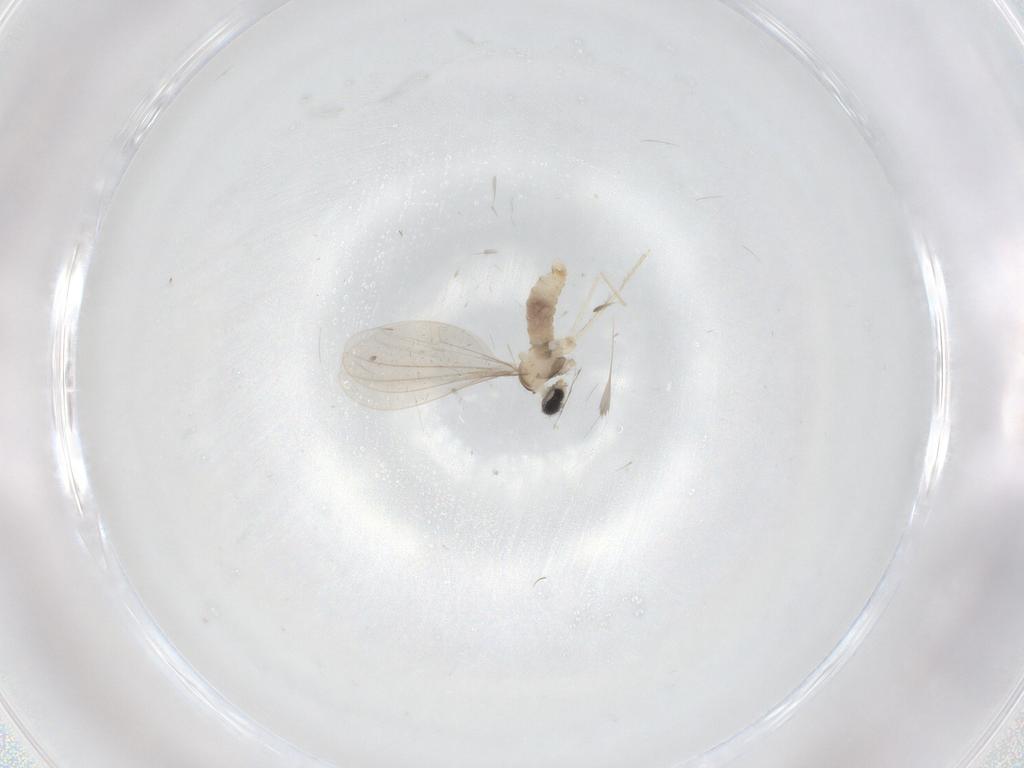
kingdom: Animalia
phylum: Arthropoda
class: Insecta
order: Diptera
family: Cecidomyiidae
